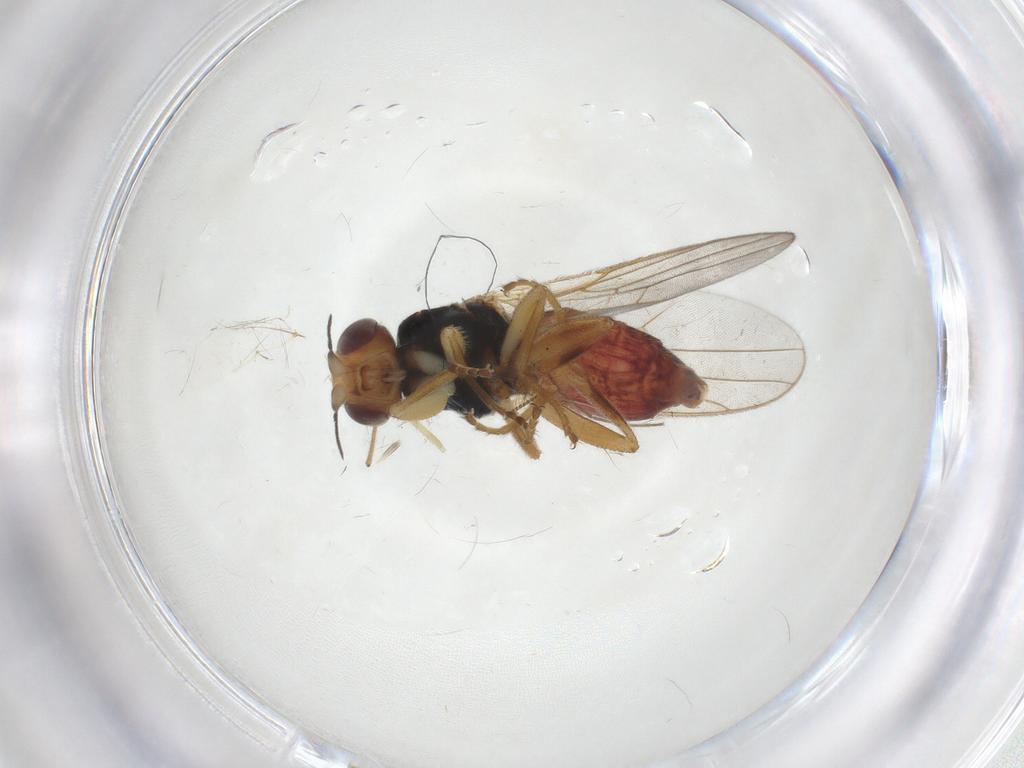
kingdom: Animalia
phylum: Arthropoda
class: Insecta
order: Diptera
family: Chloropidae
